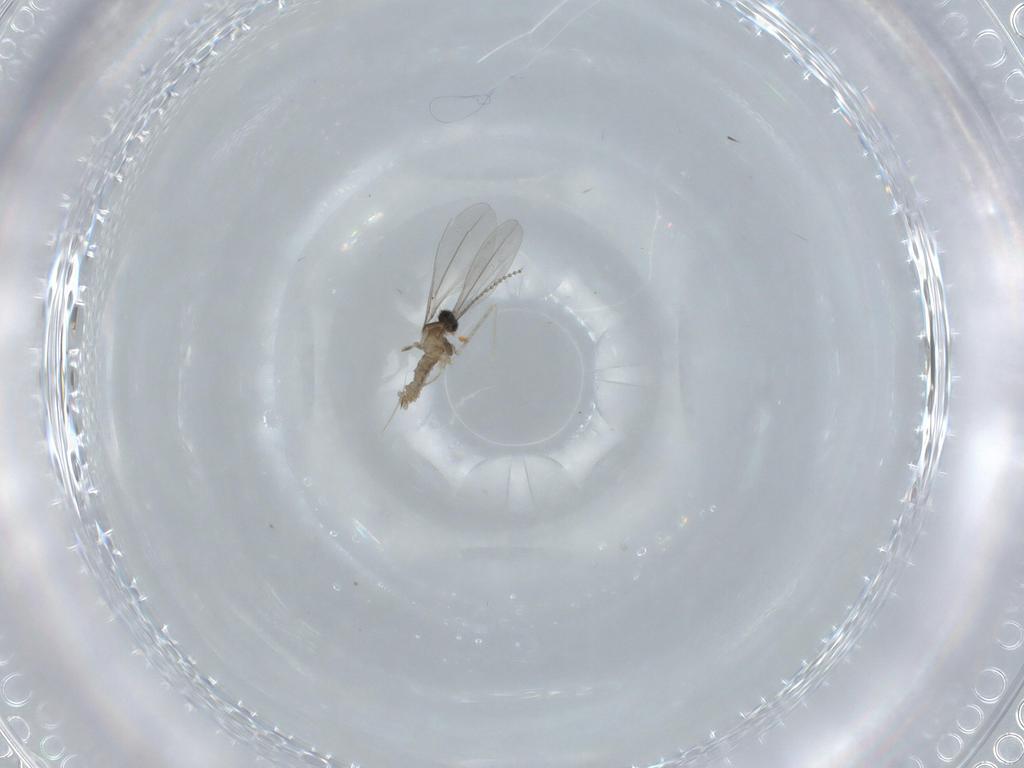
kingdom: Animalia
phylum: Arthropoda
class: Insecta
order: Diptera
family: Cecidomyiidae
